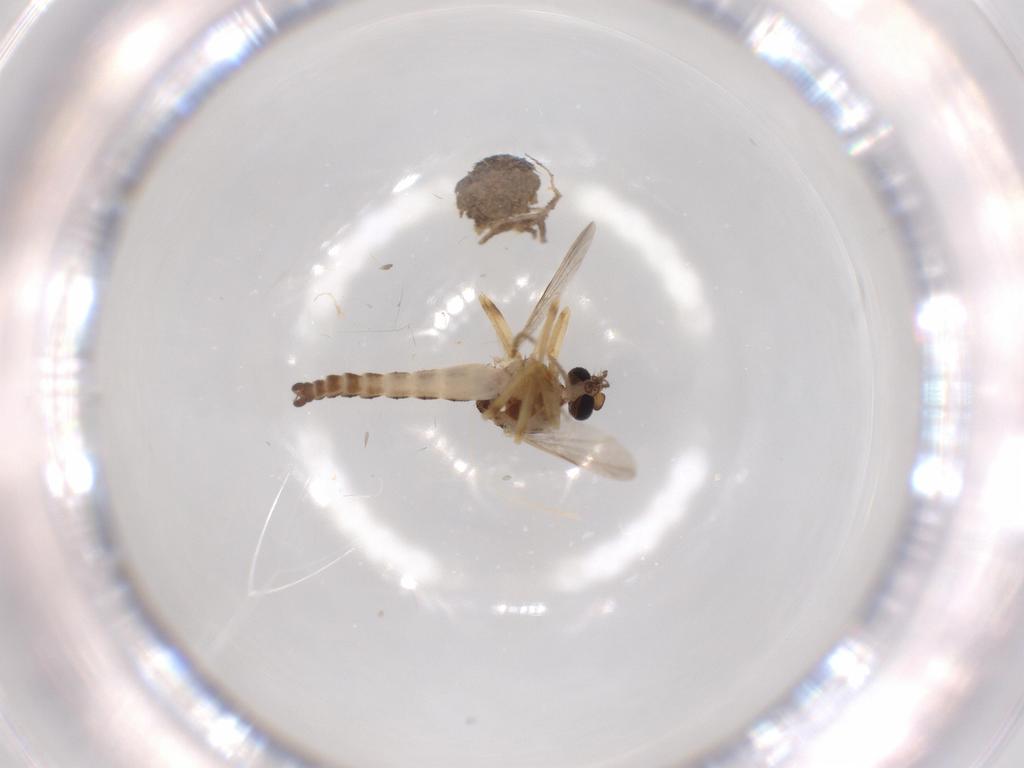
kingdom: Animalia
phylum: Arthropoda
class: Insecta
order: Diptera
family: Ceratopogonidae
